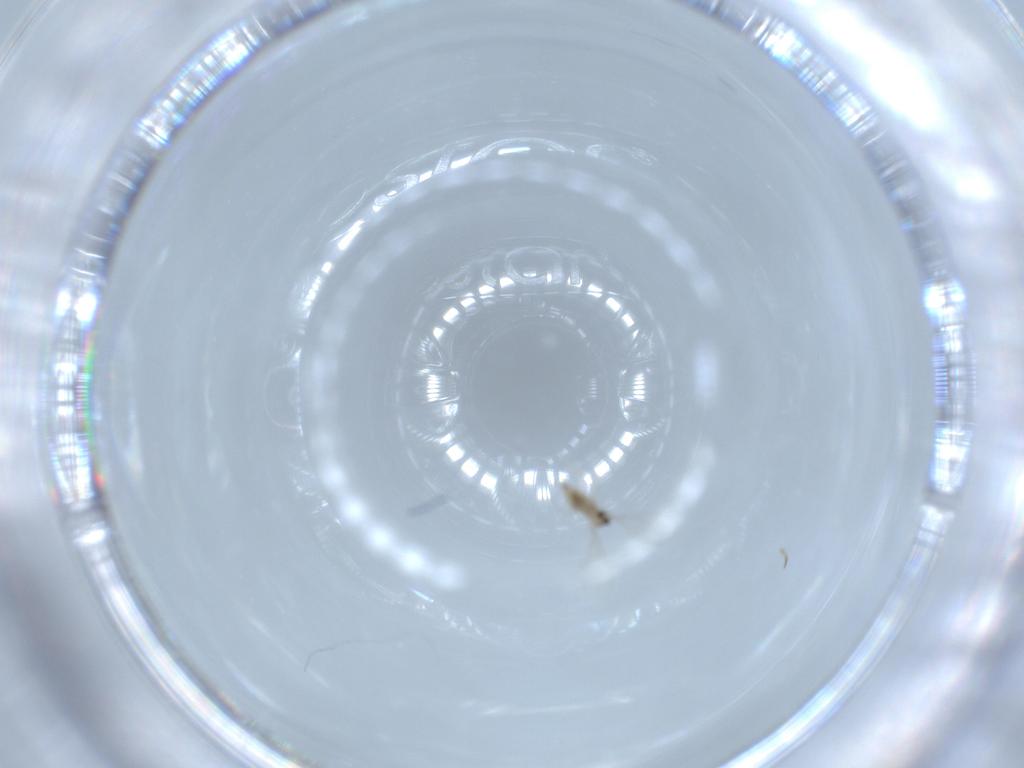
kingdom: Animalia
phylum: Arthropoda
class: Insecta
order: Diptera
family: Cecidomyiidae
